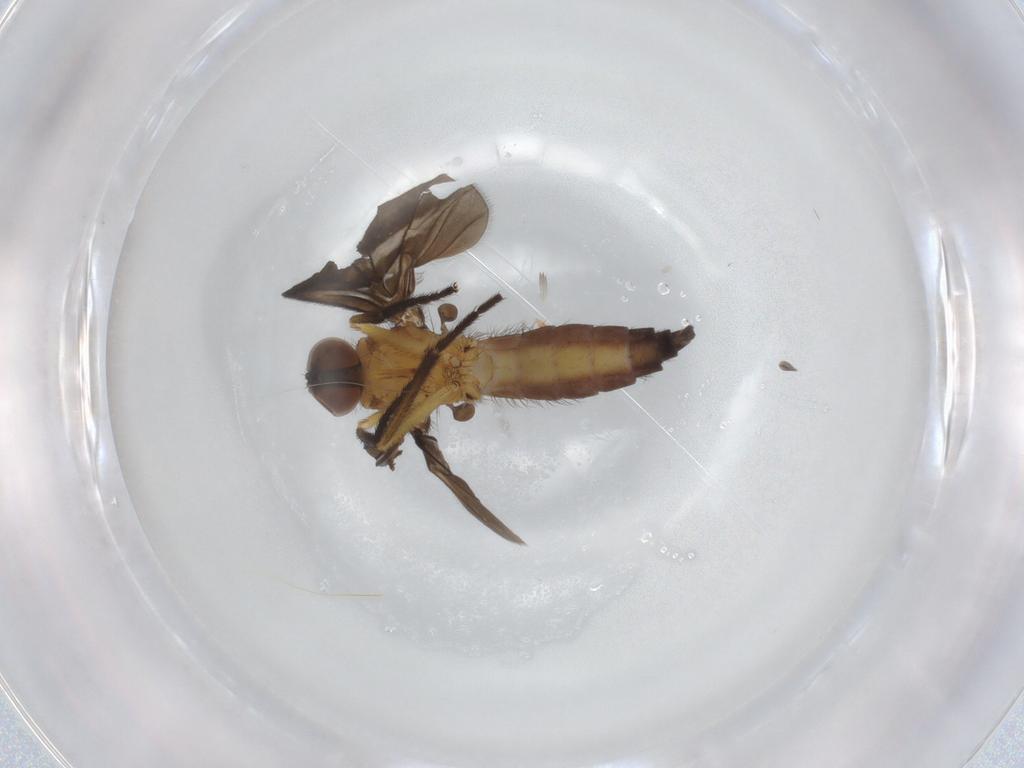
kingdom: Animalia
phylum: Arthropoda
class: Insecta
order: Diptera
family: Empididae
